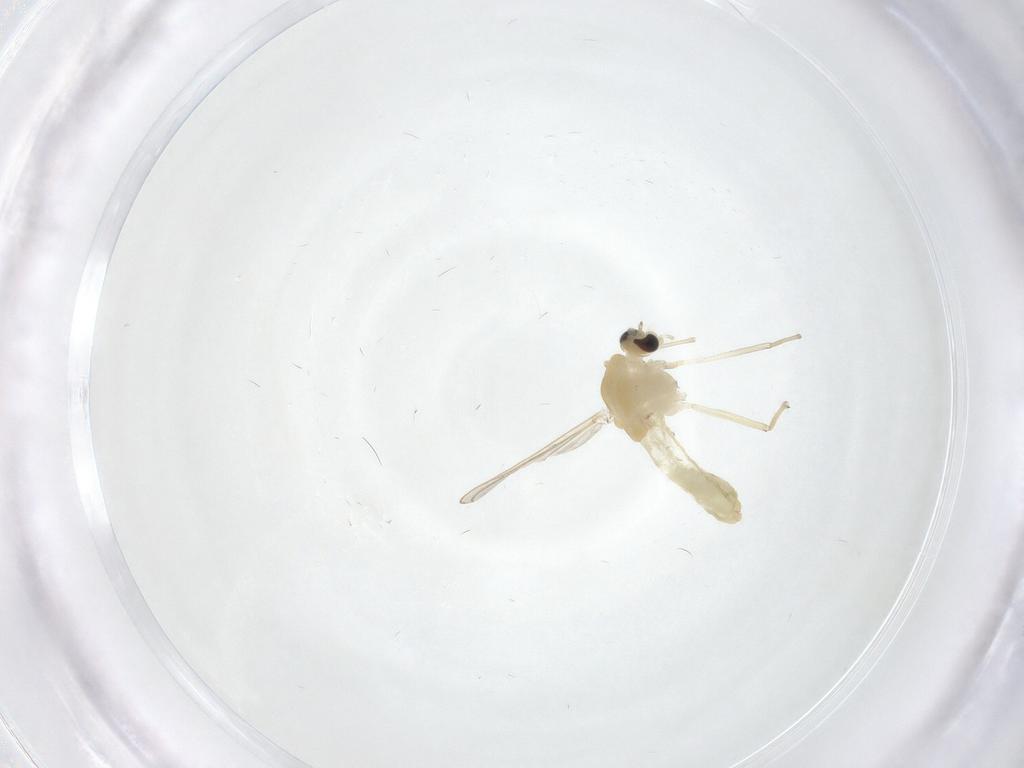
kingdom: Animalia
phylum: Arthropoda
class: Insecta
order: Diptera
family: Chironomidae
